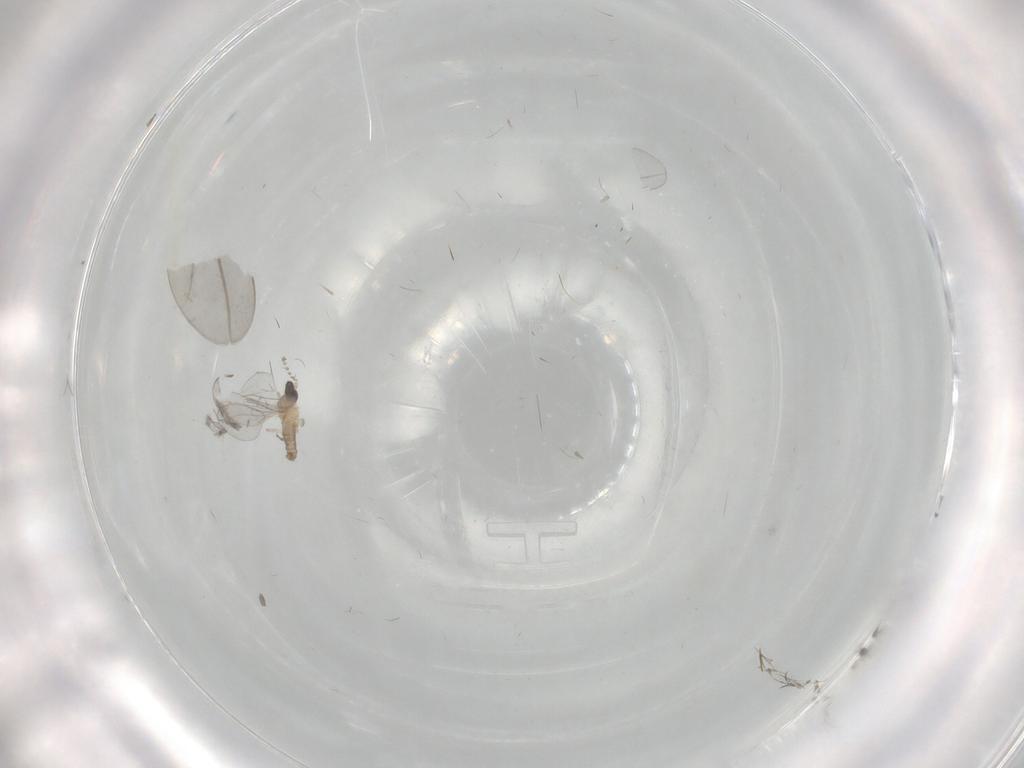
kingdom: Animalia
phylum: Arthropoda
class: Insecta
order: Diptera
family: Cecidomyiidae
